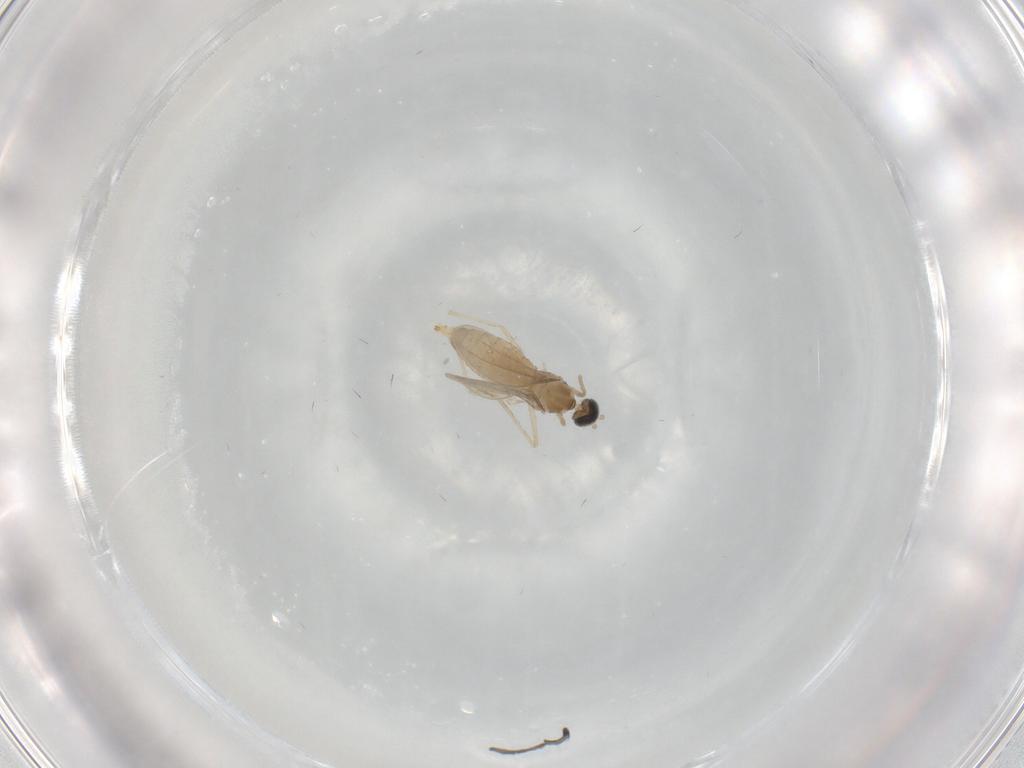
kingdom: Animalia
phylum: Arthropoda
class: Insecta
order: Diptera
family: Cecidomyiidae
